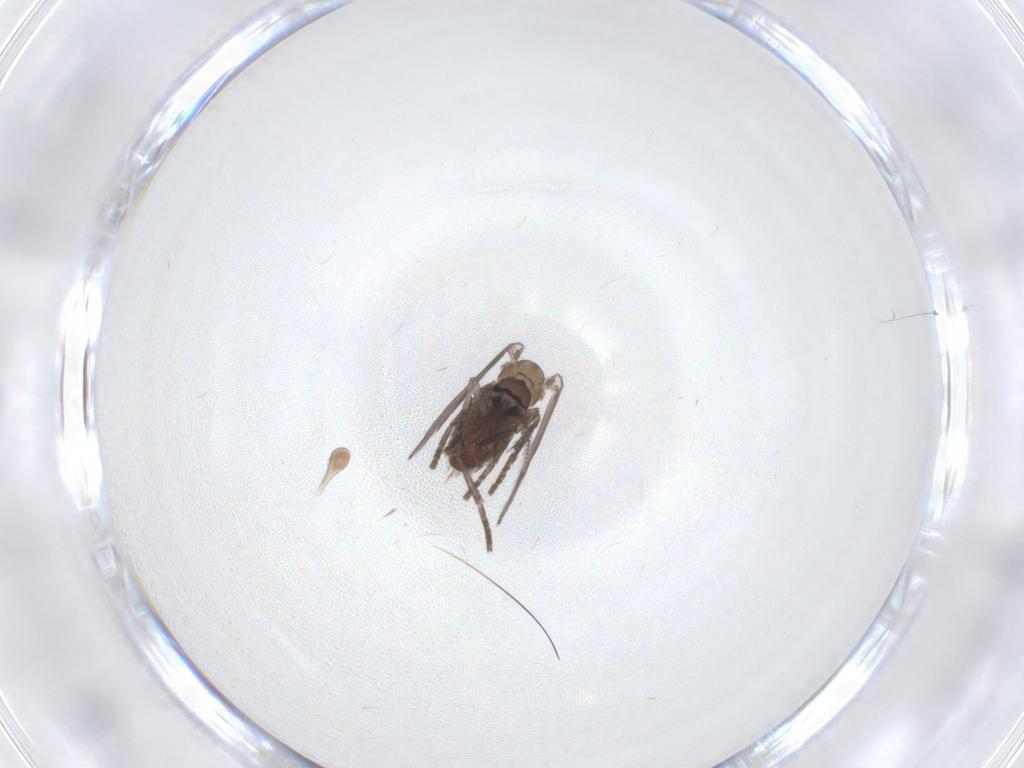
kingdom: Animalia
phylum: Arthropoda
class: Insecta
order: Diptera
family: Psychodidae
